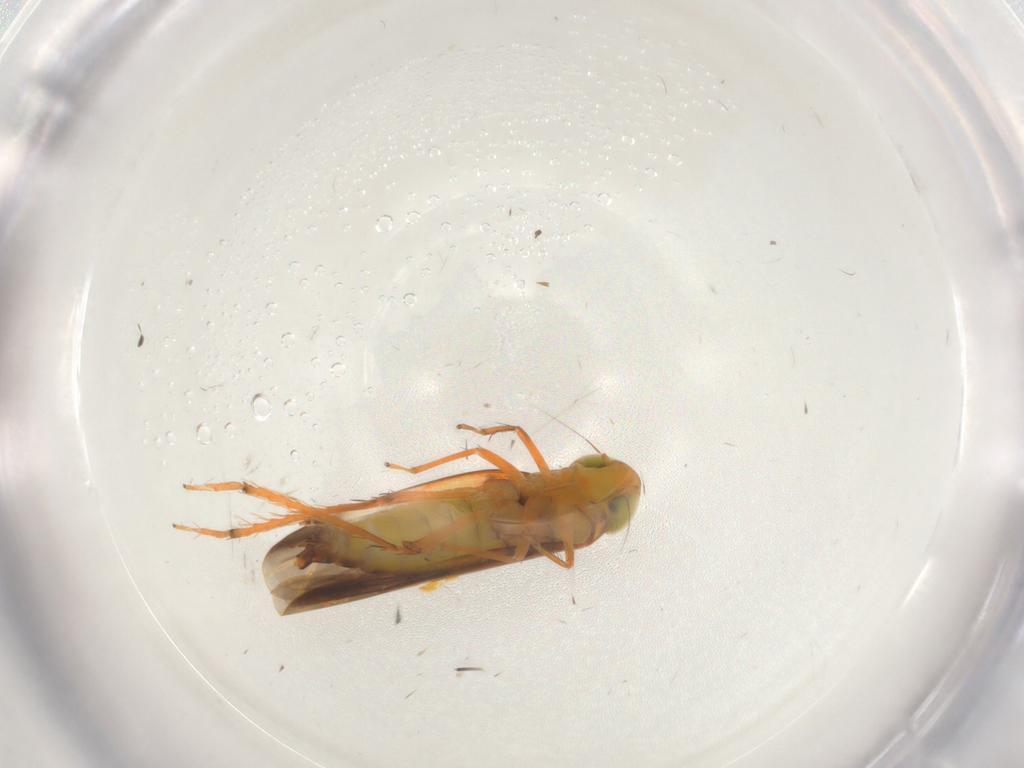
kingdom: Animalia
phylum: Arthropoda
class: Insecta
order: Hemiptera
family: Cicadellidae
